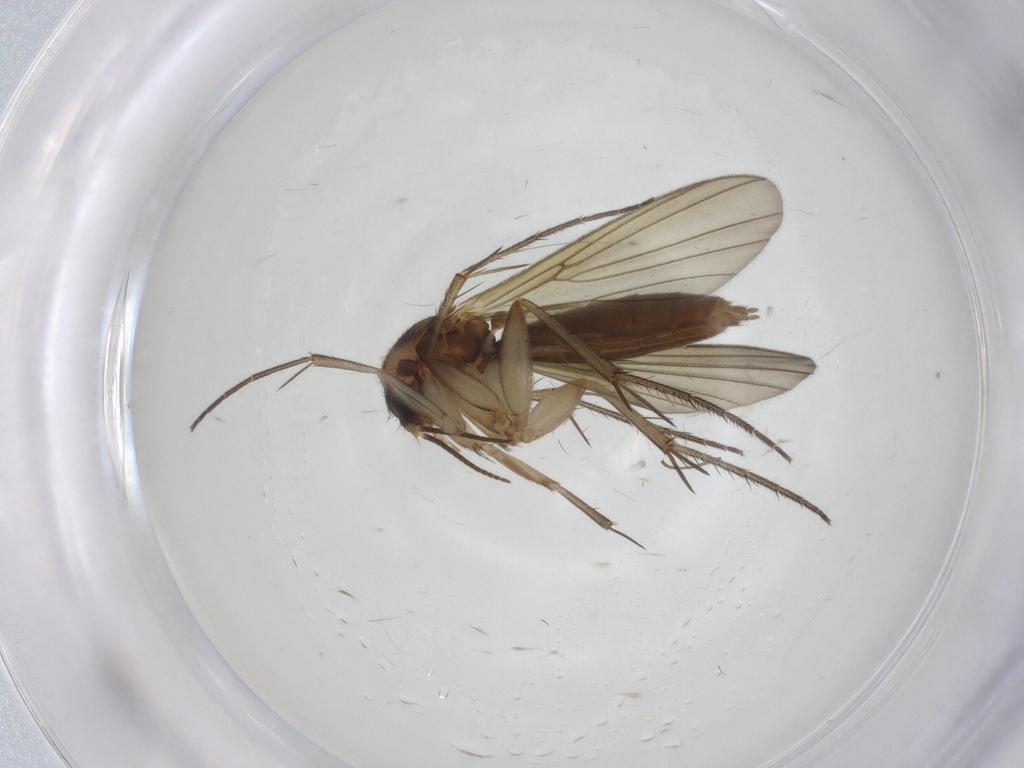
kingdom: Animalia
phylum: Arthropoda
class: Insecta
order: Diptera
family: Mycetophilidae
